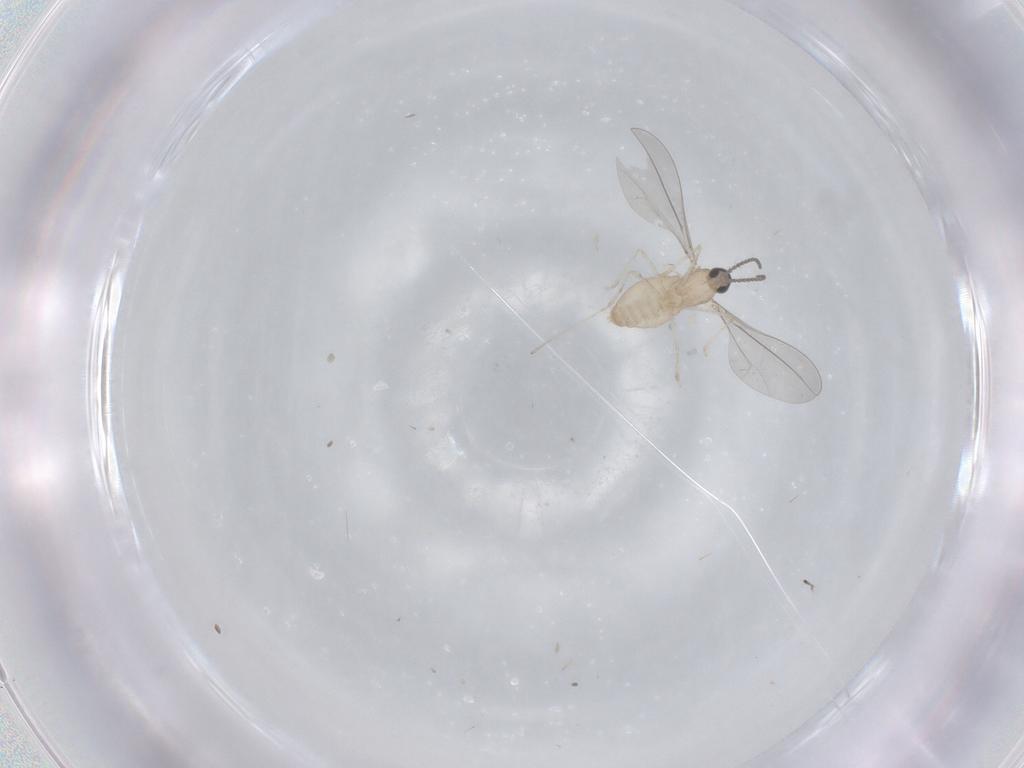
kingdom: Animalia
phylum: Arthropoda
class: Insecta
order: Diptera
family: Cecidomyiidae
